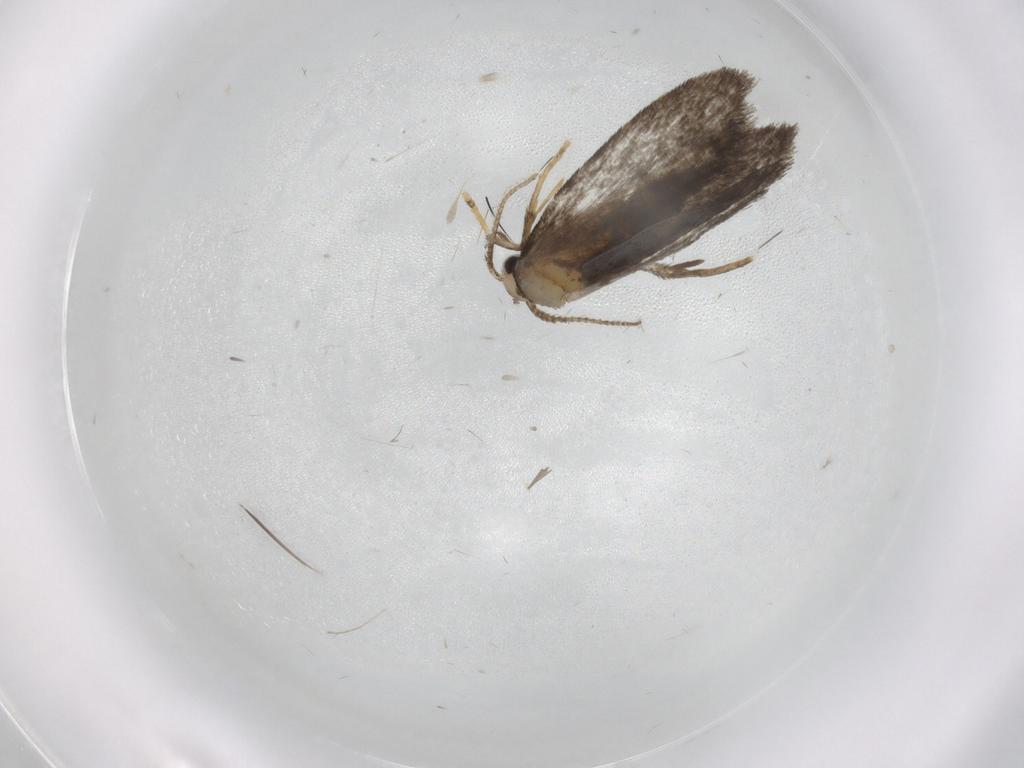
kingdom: Animalia
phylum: Arthropoda
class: Insecta
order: Lepidoptera
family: Psychidae
